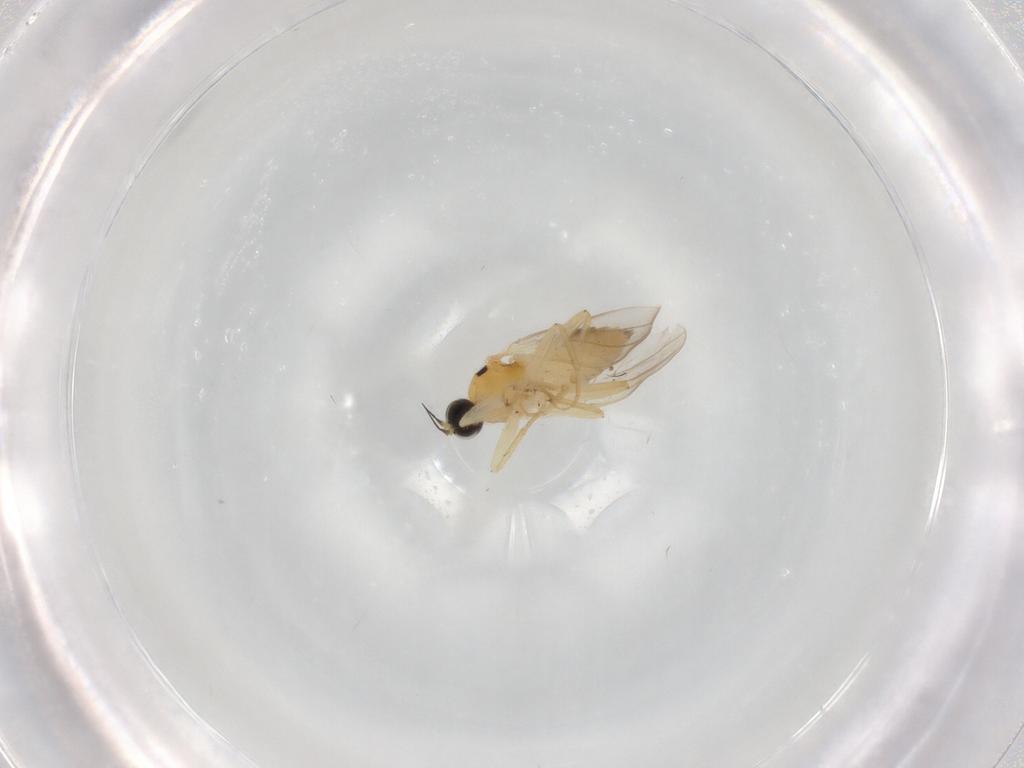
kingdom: Animalia
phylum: Arthropoda
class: Insecta
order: Diptera
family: Hybotidae
